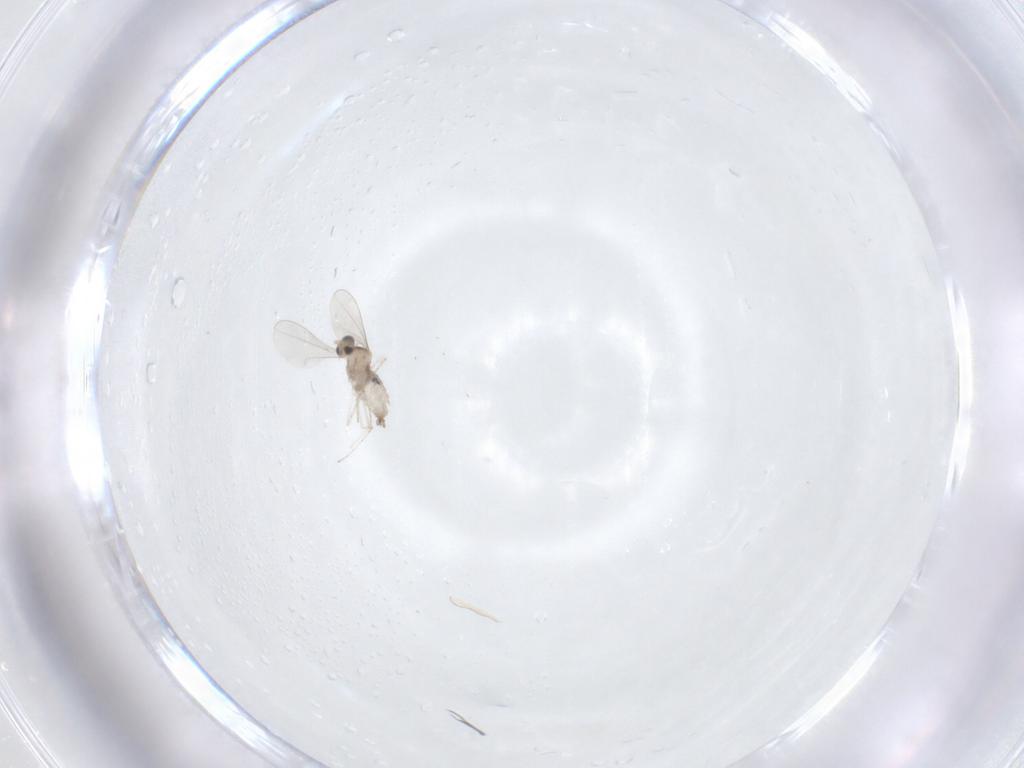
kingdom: Animalia
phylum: Arthropoda
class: Insecta
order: Diptera
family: Cecidomyiidae
